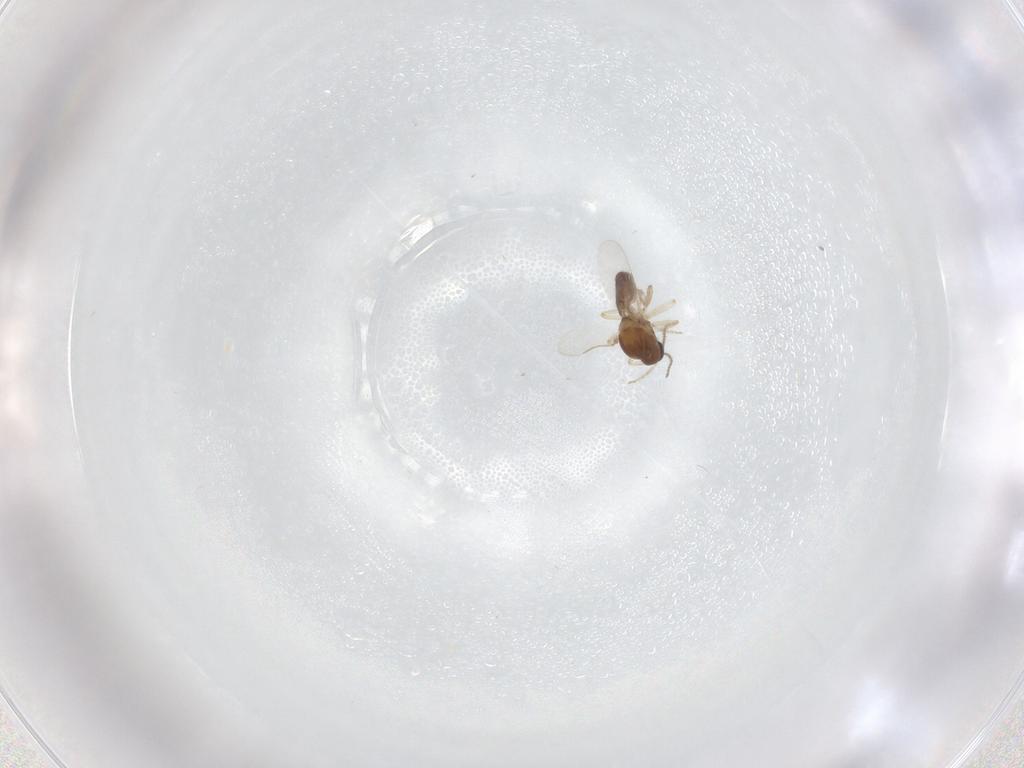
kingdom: Animalia
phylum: Arthropoda
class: Insecta
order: Diptera
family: Ceratopogonidae
